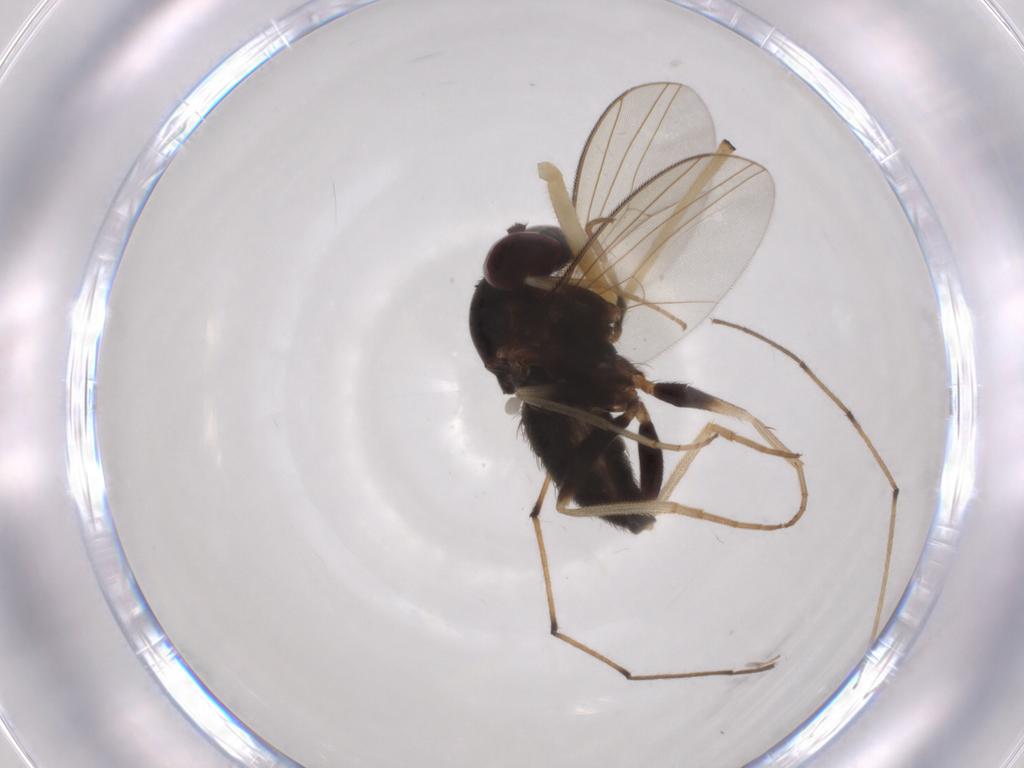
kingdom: Animalia
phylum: Arthropoda
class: Insecta
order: Diptera
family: Dolichopodidae
